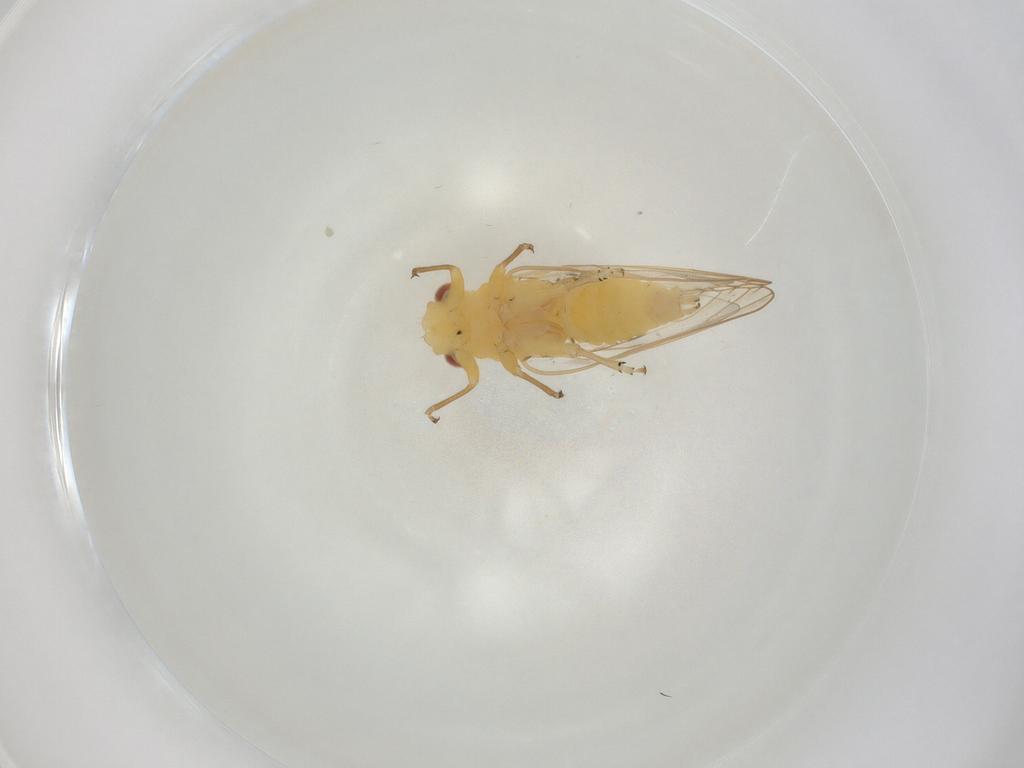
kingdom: Animalia
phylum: Arthropoda
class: Insecta
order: Hemiptera
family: Psyllidae
